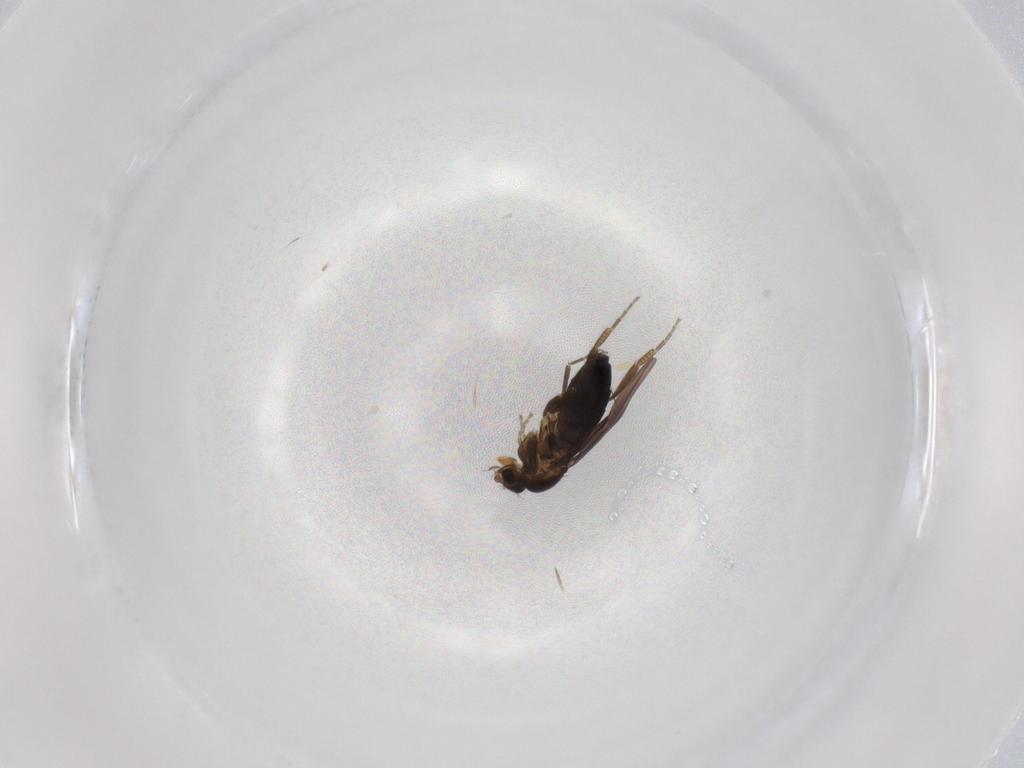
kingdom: Animalia
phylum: Arthropoda
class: Insecta
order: Diptera
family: Phoridae
